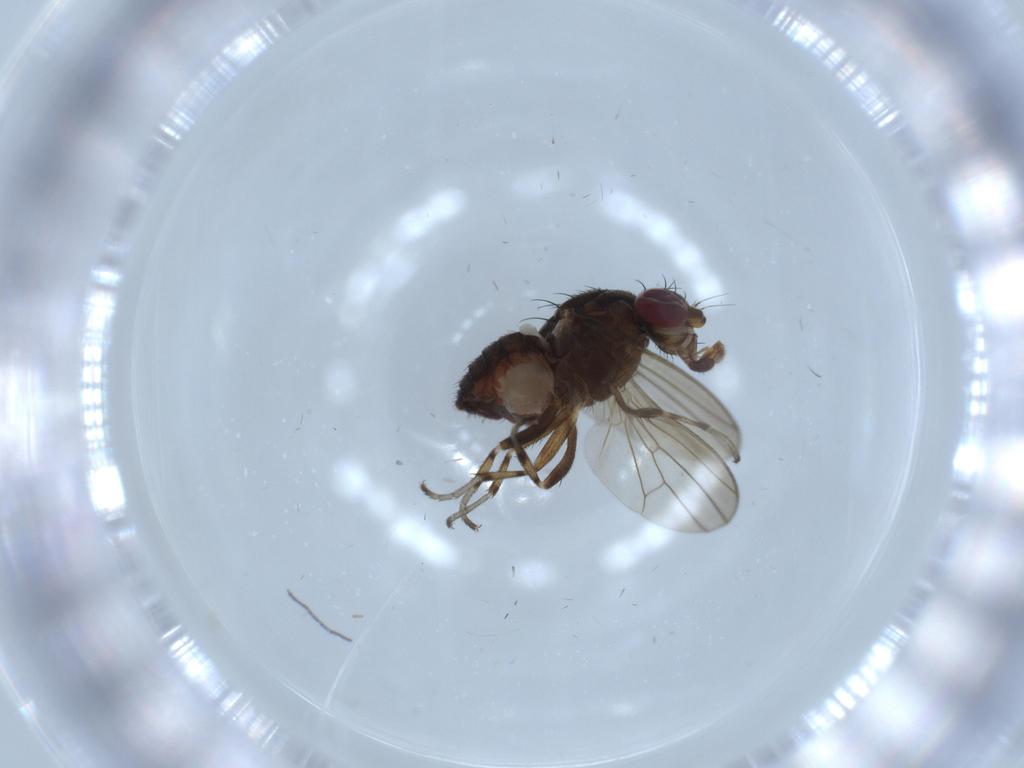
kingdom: Animalia
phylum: Arthropoda
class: Insecta
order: Diptera
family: Heleomyzidae
